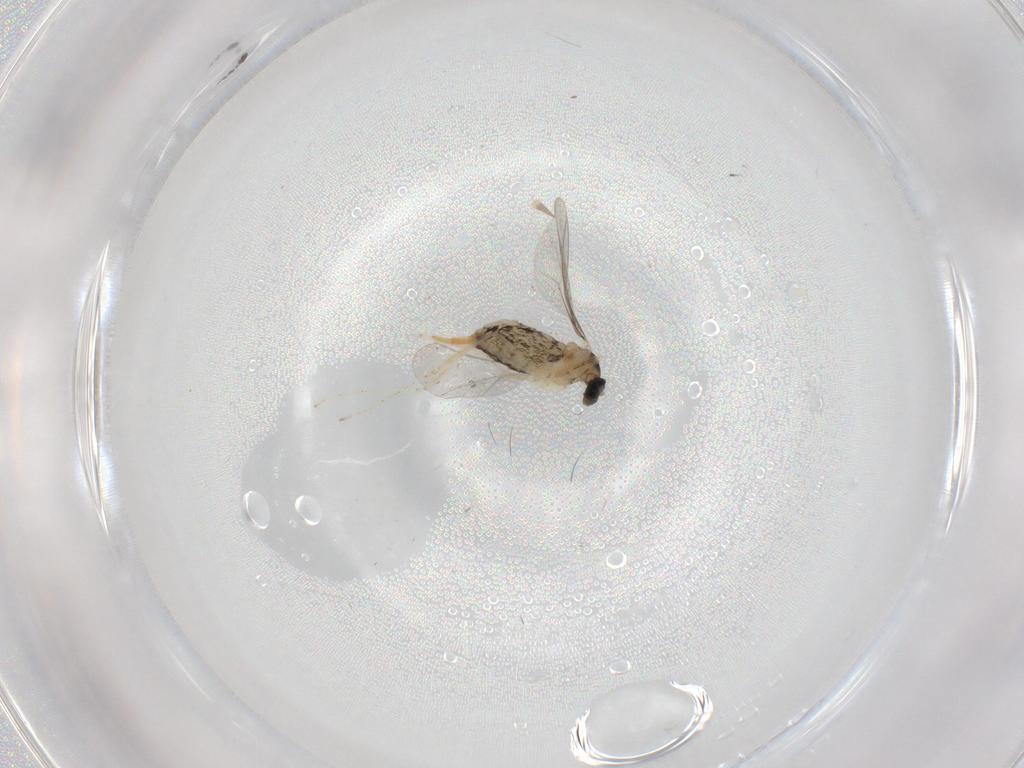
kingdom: Animalia
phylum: Arthropoda
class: Insecta
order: Diptera
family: Cecidomyiidae
